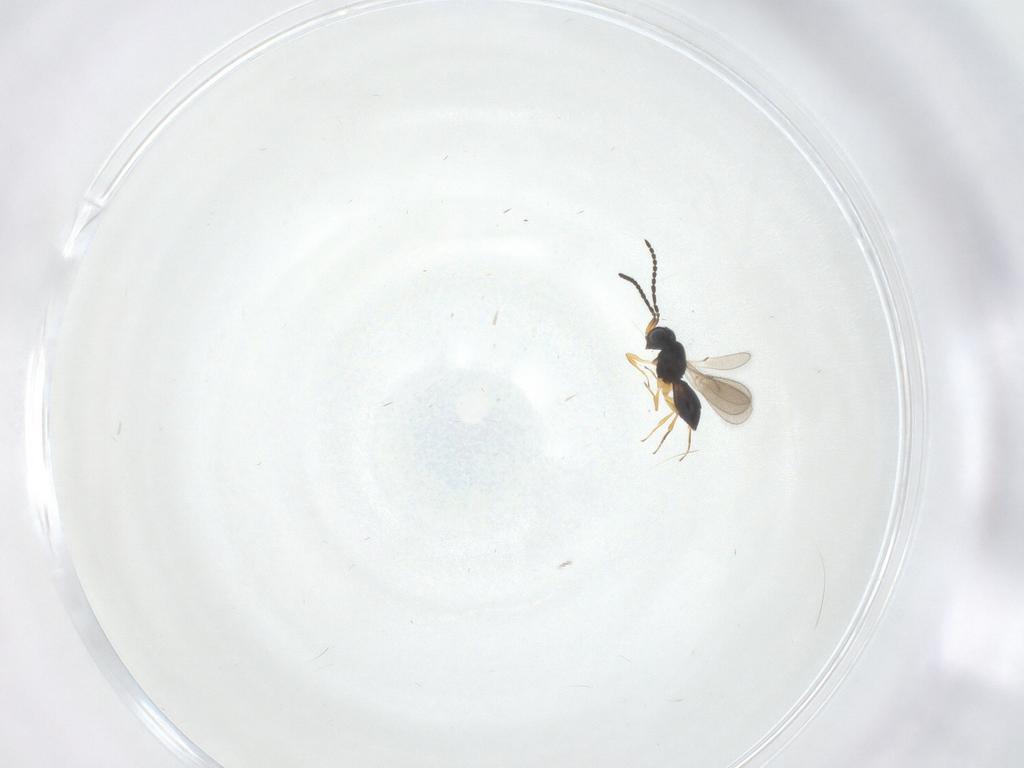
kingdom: Animalia
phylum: Arthropoda
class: Insecta
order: Hymenoptera
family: Scelionidae
